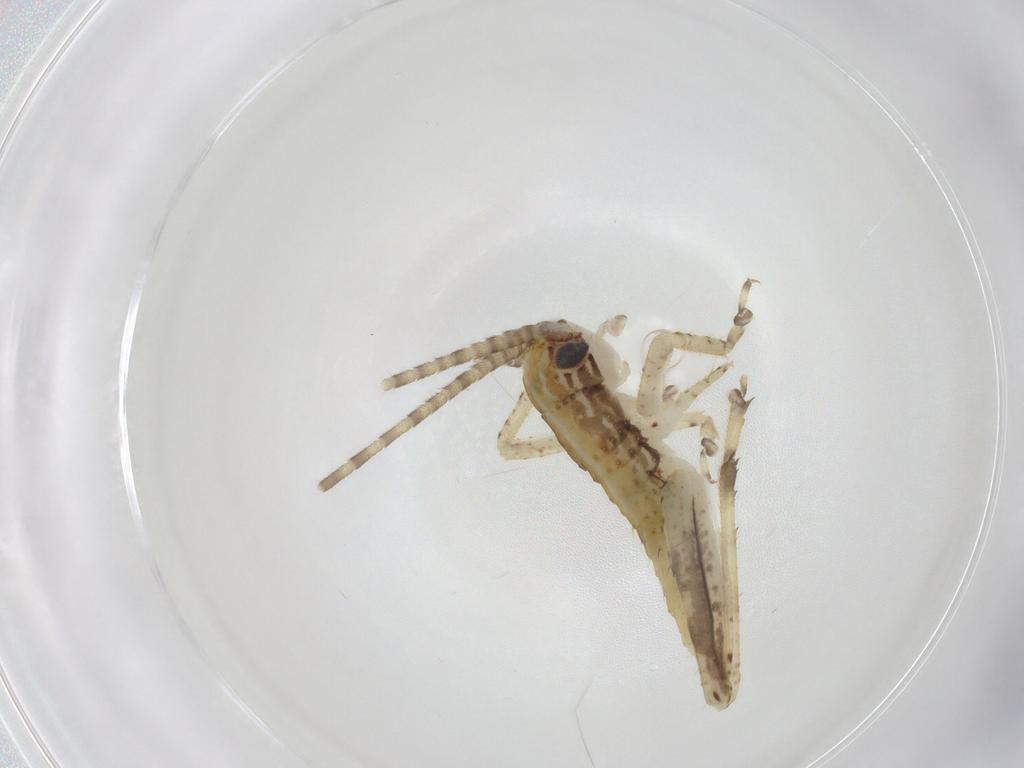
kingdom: Animalia
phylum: Arthropoda
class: Insecta
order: Orthoptera
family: Gryllidae
